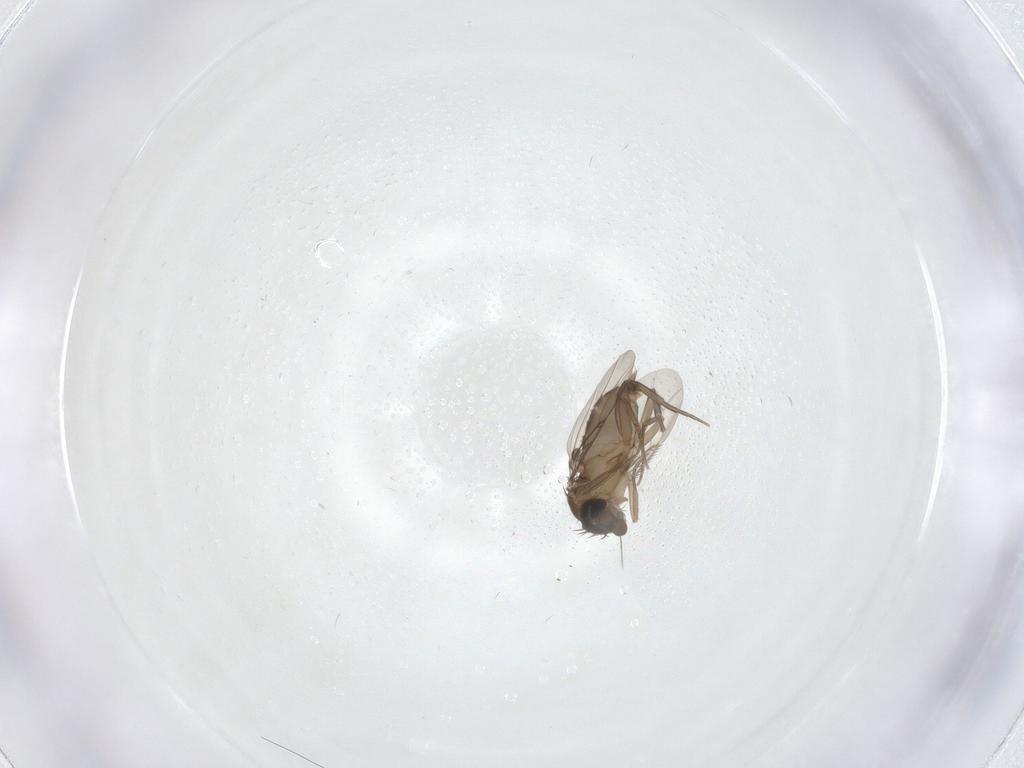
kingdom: Animalia
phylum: Arthropoda
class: Insecta
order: Diptera
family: Phoridae
